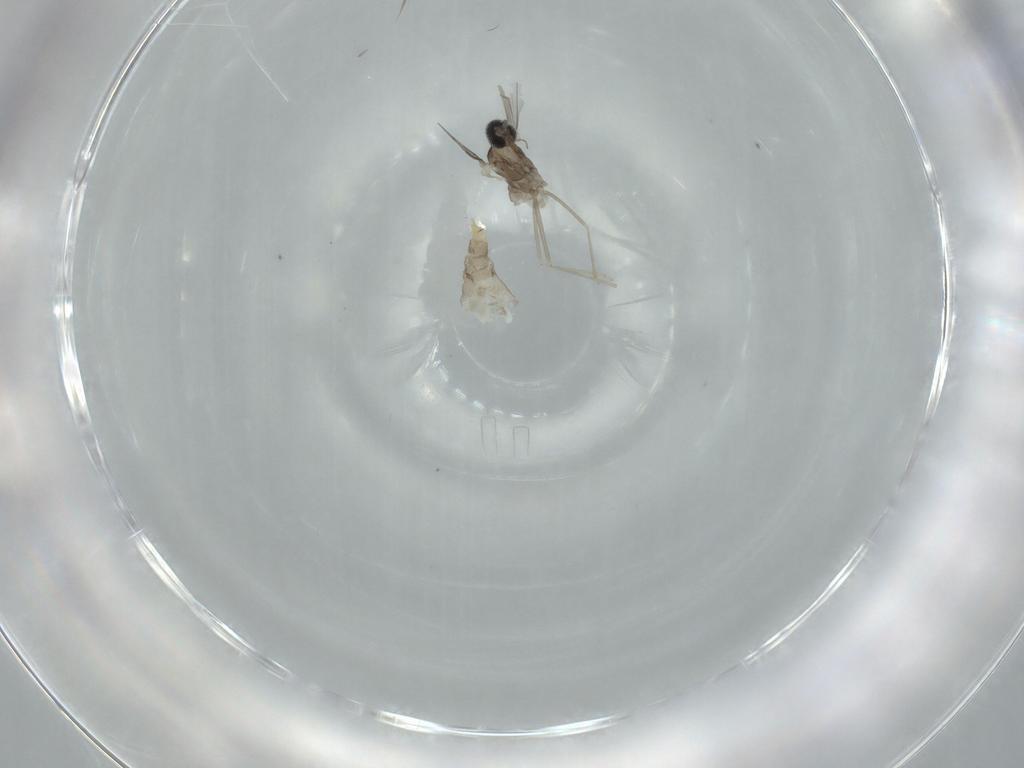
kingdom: Animalia
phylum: Arthropoda
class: Insecta
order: Diptera
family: Cecidomyiidae
